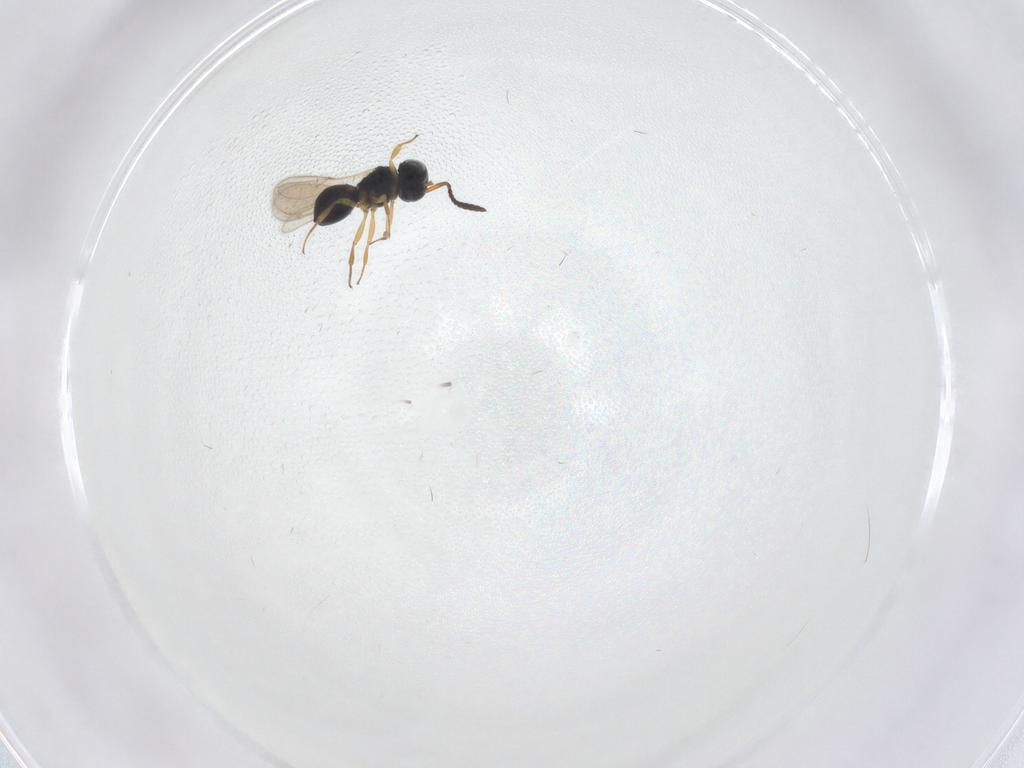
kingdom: Animalia
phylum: Arthropoda
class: Insecta
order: Hymenoptera
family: Scelionidae
